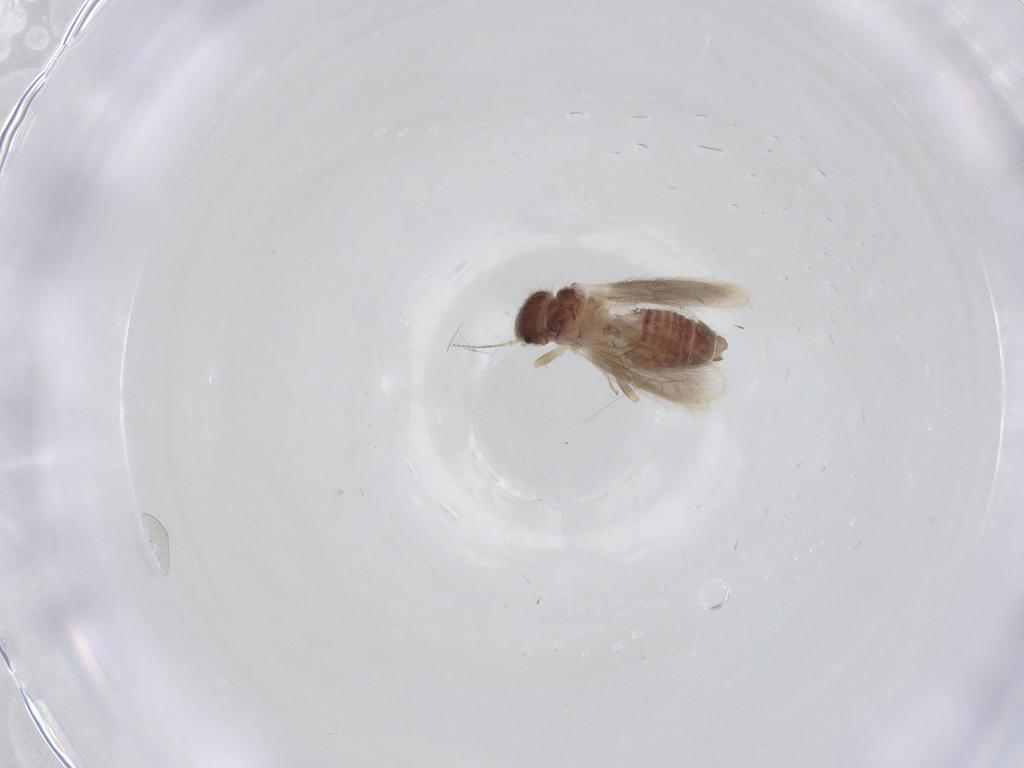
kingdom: Animalia
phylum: Arthropoda
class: Insecta
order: Psocodea
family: Archipsocidae
